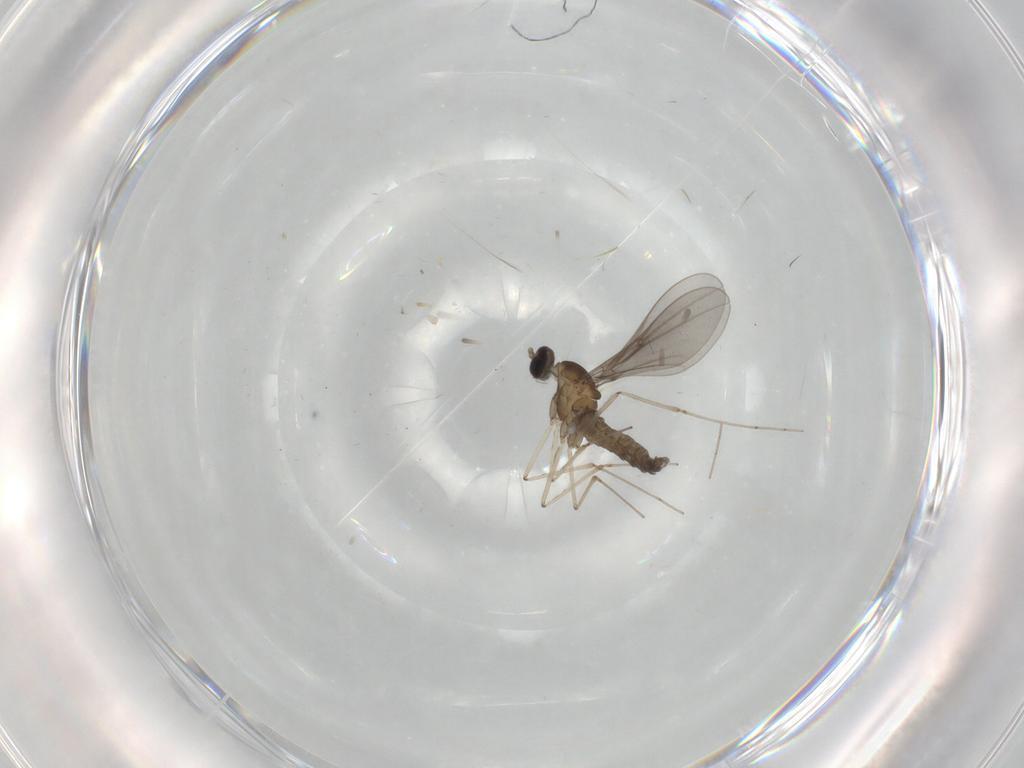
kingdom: Animalia
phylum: Arthropoda
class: Insecta
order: Diptera
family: Cecidomyiidae
